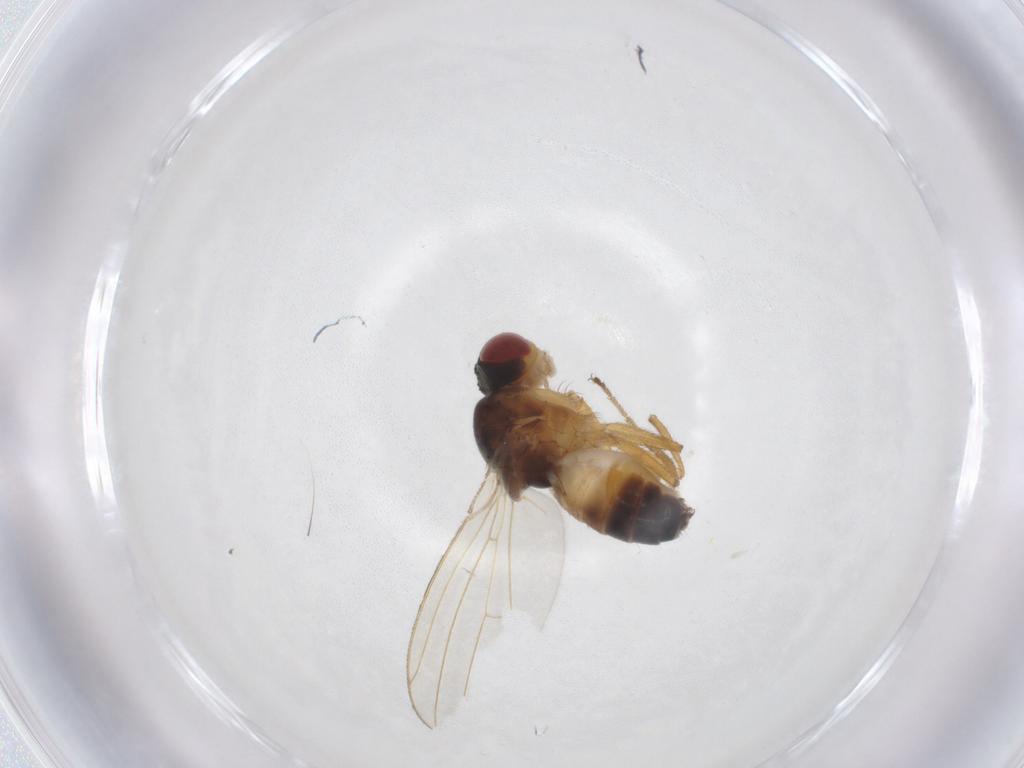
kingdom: Animalia
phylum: Arthropoda
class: Insecta
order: Diptera
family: Drosophilidae
